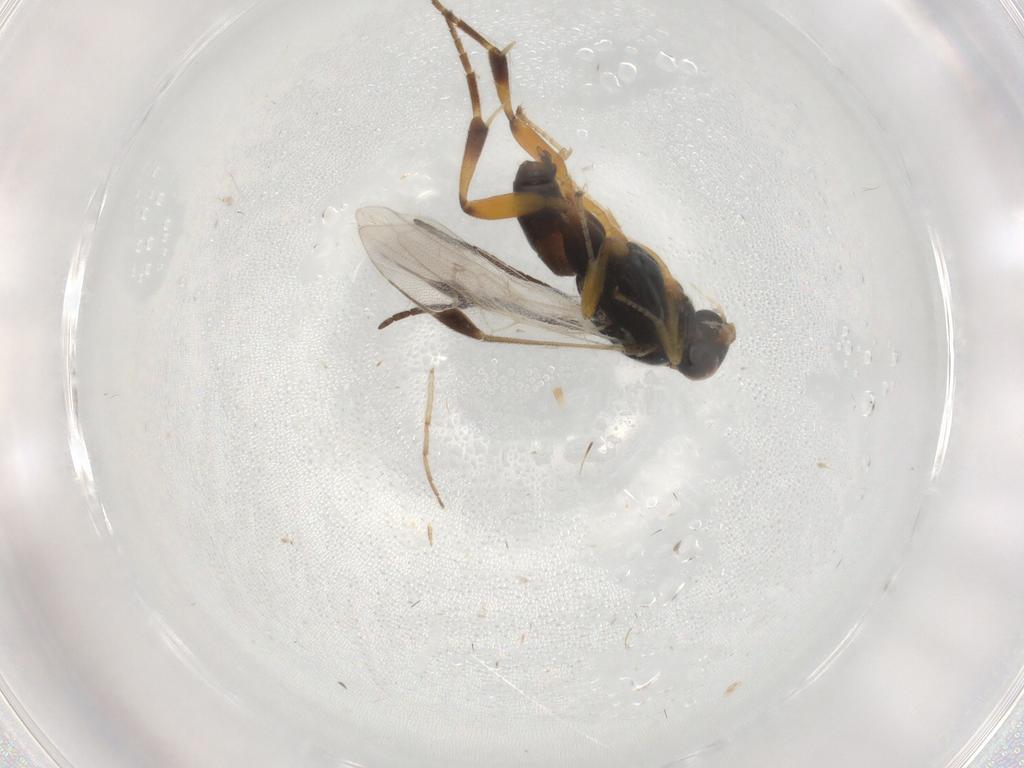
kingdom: Animalia
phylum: Arthropoda
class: Insecta
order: Hymenoptera
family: Braconidae
